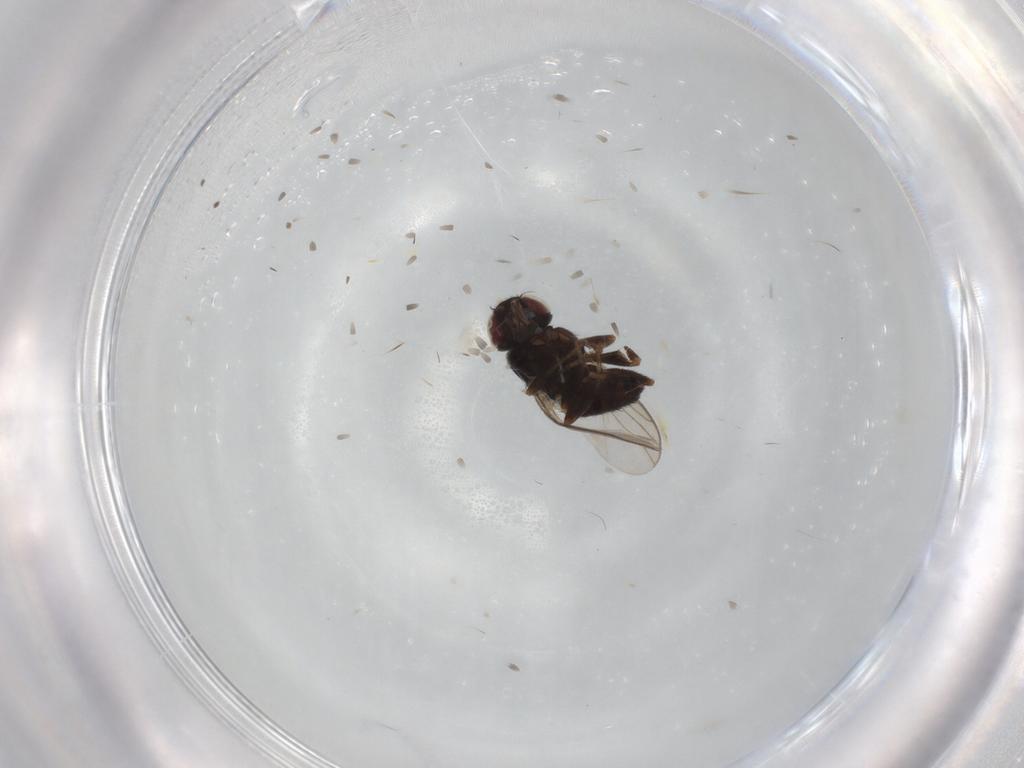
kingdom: Animalia
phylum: Arthropoda
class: Insecta
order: Diptera
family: Chloropidae
